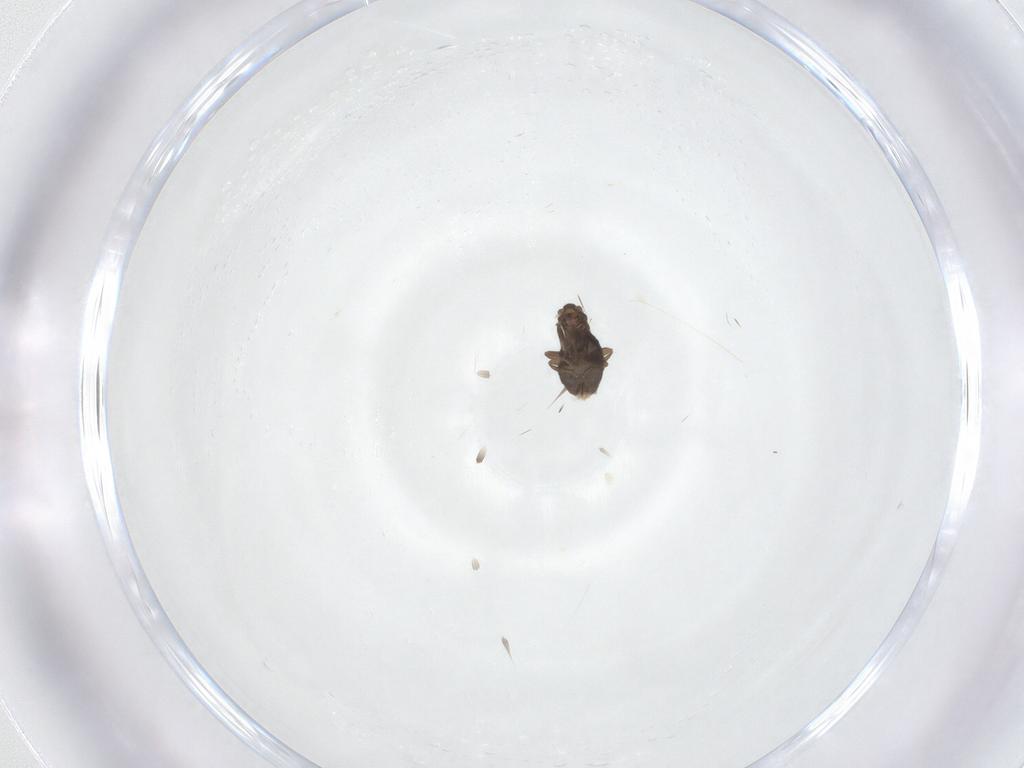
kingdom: Animalia
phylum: Arthropoda
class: Insecta
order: Diptera
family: Phoridae
